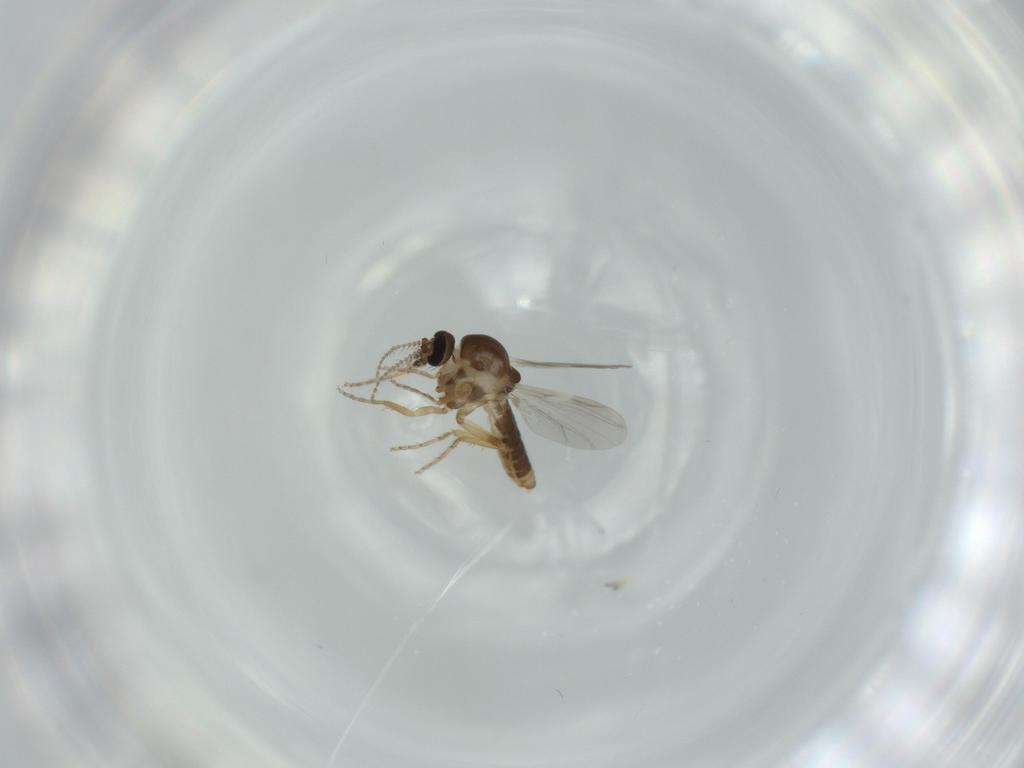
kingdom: Animalia
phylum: Arthropoda
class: Insecta
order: Diptera
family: Ceratopogonidae
